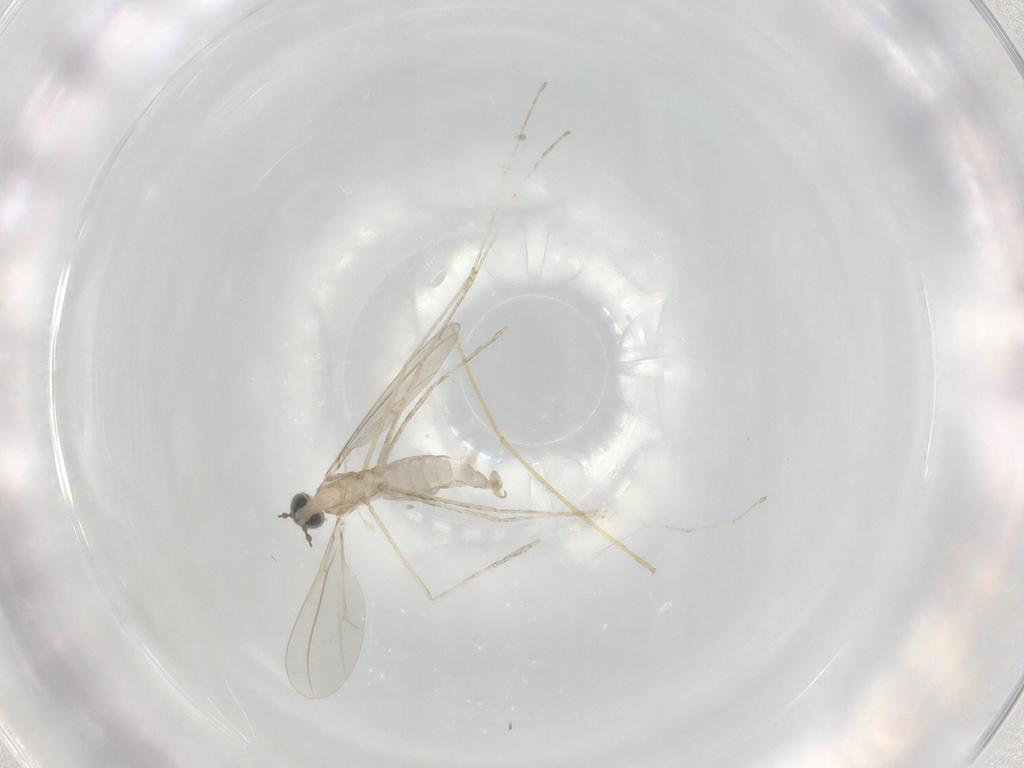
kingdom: Animalia
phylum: Arthropoda
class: Insecta
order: Diptera
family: Cecidomyiidae
